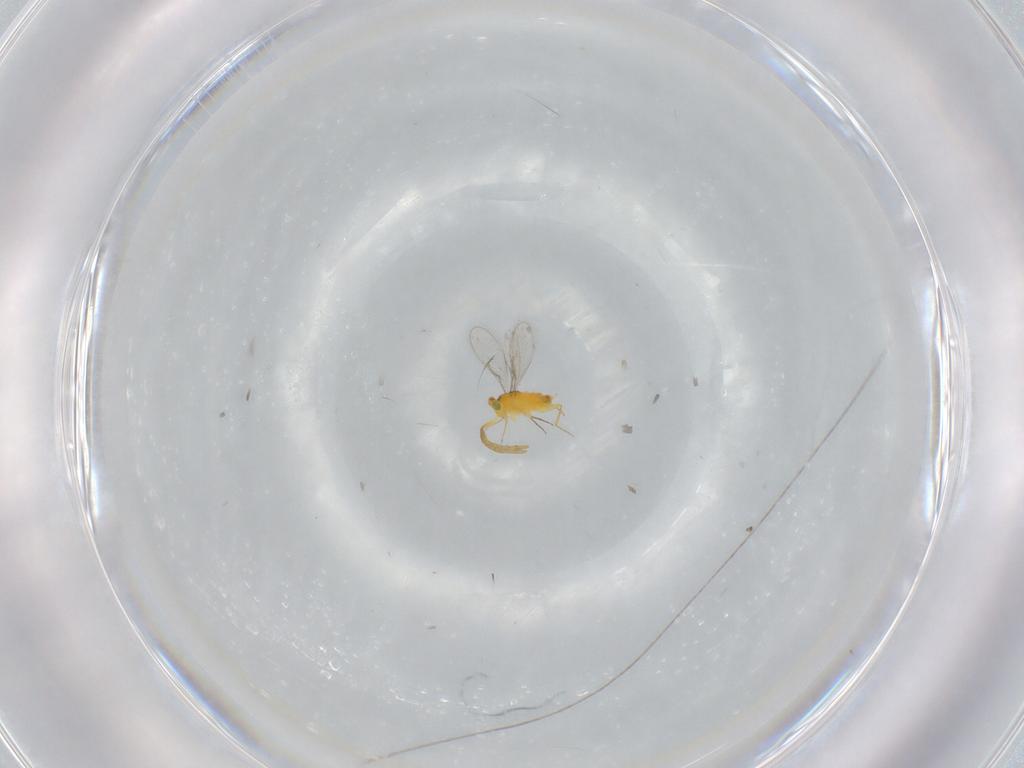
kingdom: Animalia
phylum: Arthropoda
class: Insecta
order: Hymenoptera
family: Aphelinidae
